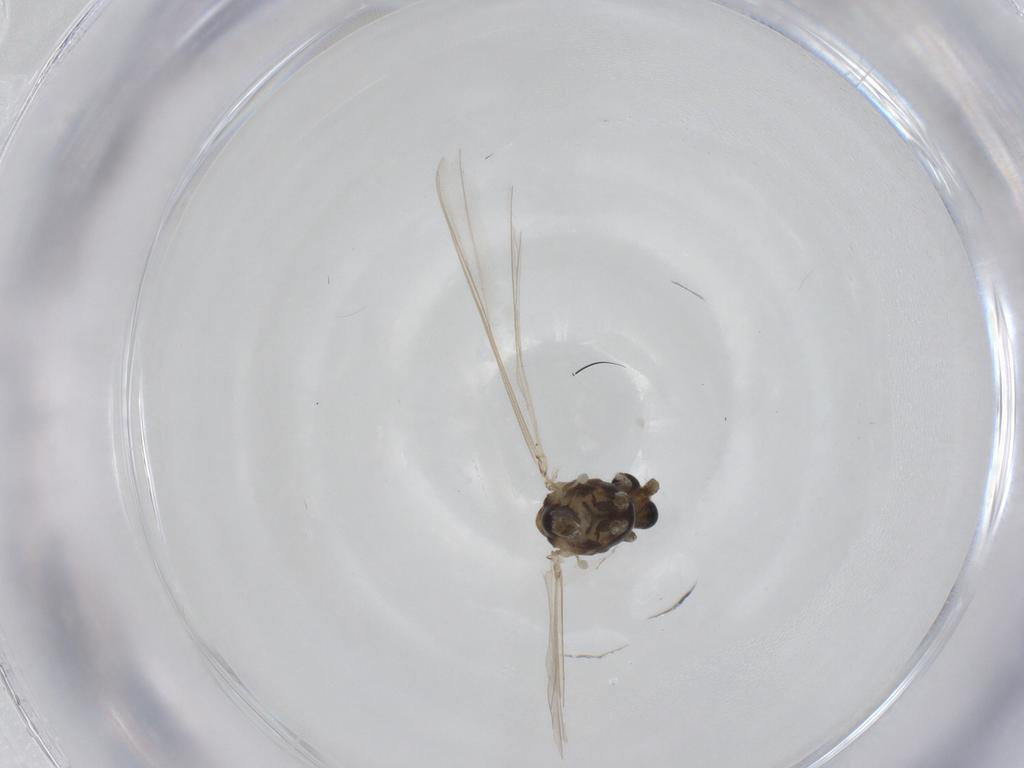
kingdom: Animalia
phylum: Arthropoda
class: Insecta
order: Diptera
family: Chironomidae
